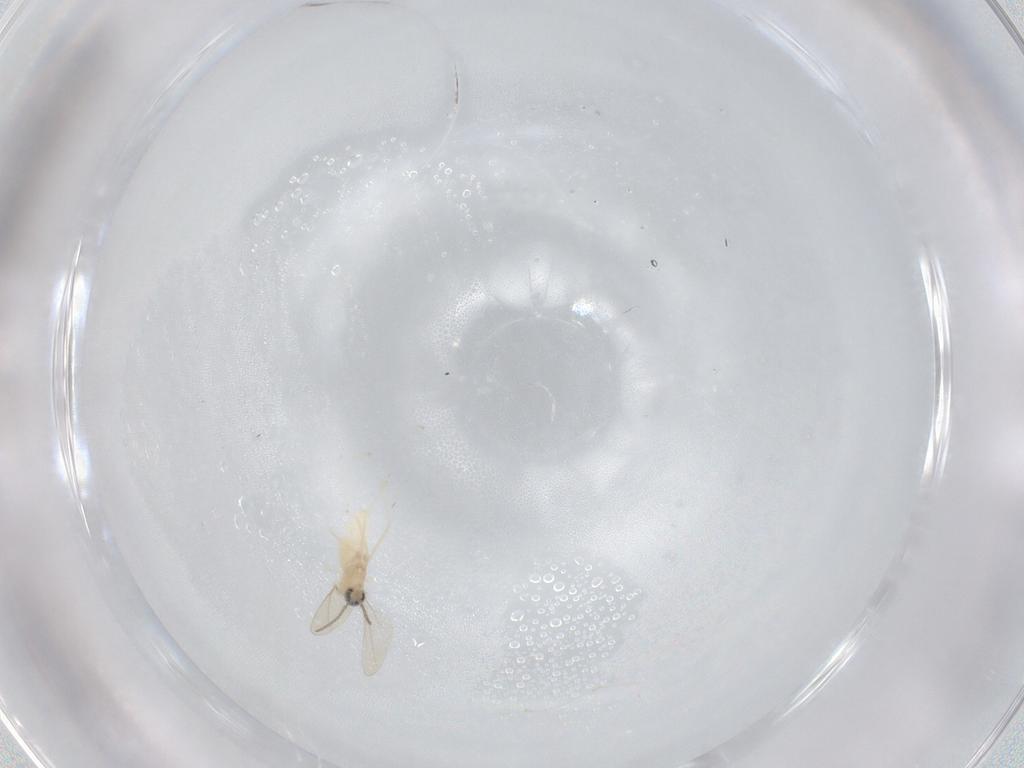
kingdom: Animalia
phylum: Arthropoda
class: Insecta
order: Diptera
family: Cecidomyiidae
